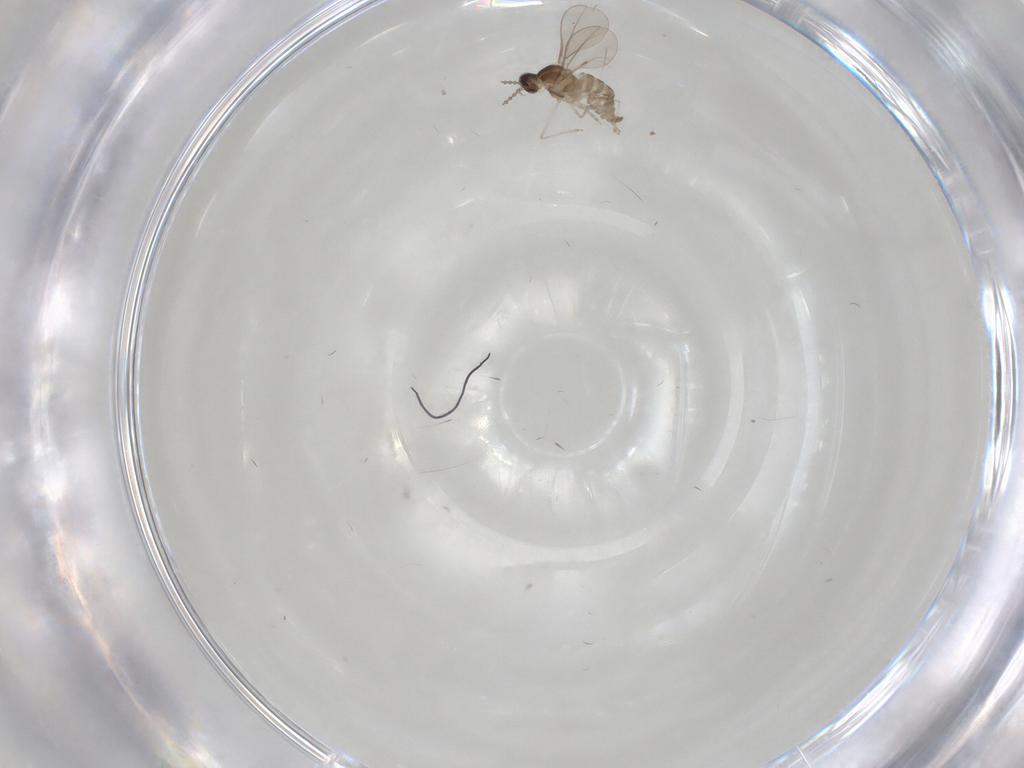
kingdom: Animalia
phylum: Arthropoda
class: Insecta
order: Diptera
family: Cecidomyiidae
